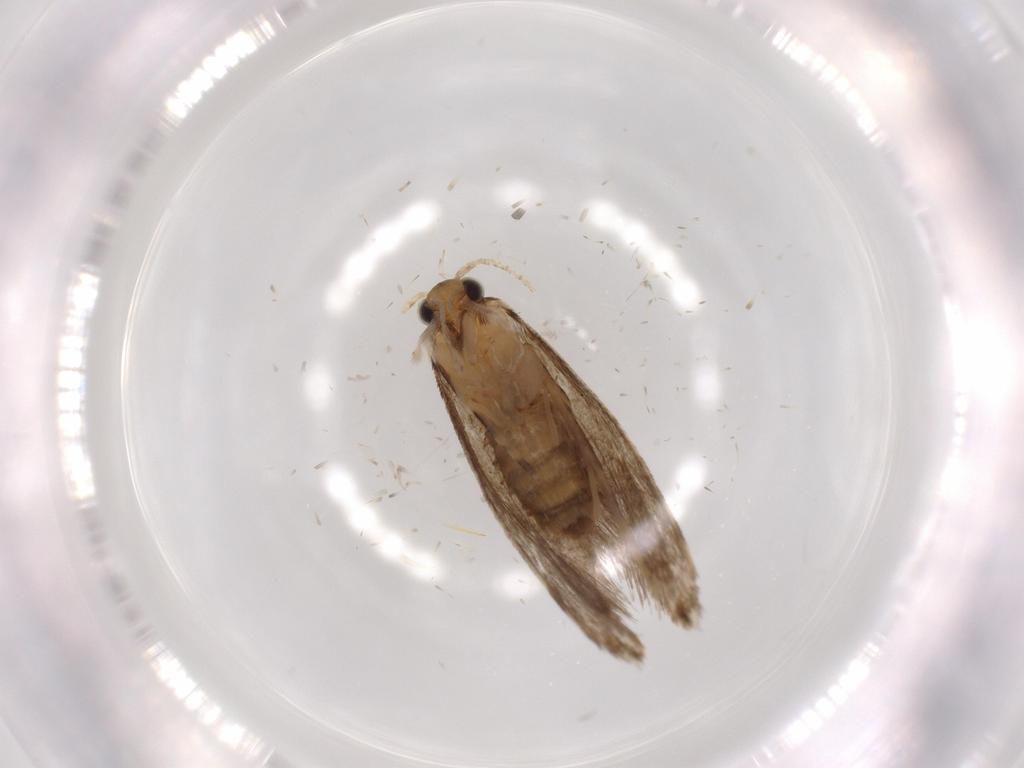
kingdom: Animalia
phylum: Arthropoda
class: Insecta
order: Lepidoptera
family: Tineidae
